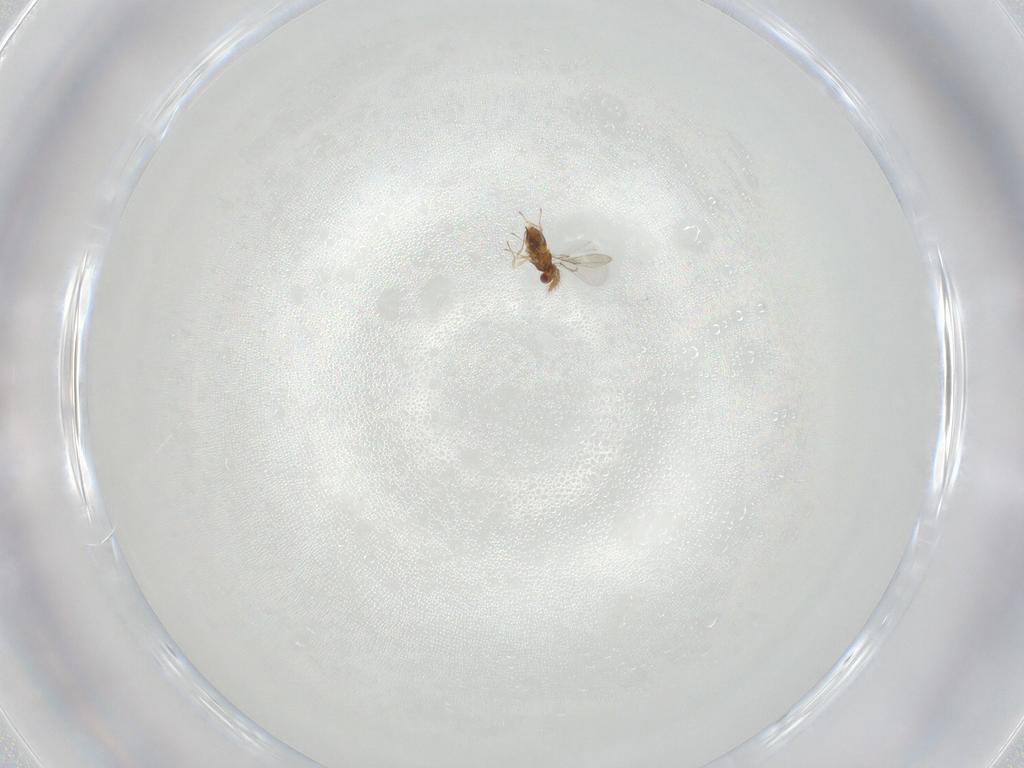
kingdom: Animalia
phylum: Arthropoda
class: Insecta
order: Hymenoptera
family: Trichogrammatidae
